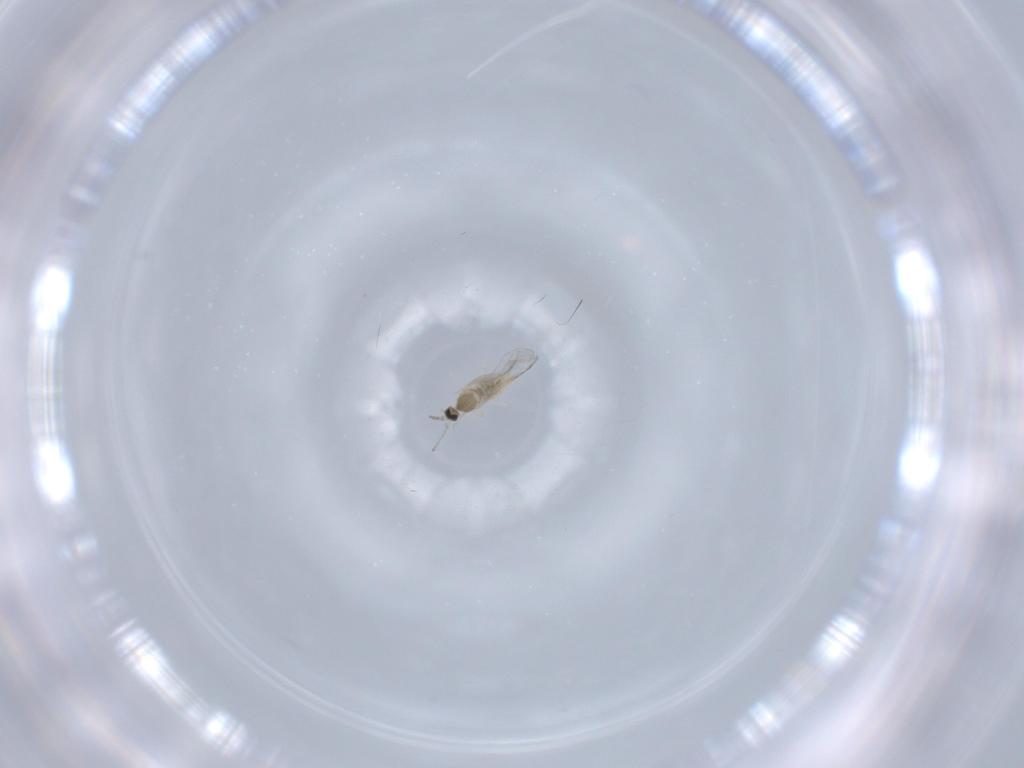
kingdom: Animalia
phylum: Arthropoda
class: Insecta
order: Diptera
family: Cecidomyiidae
